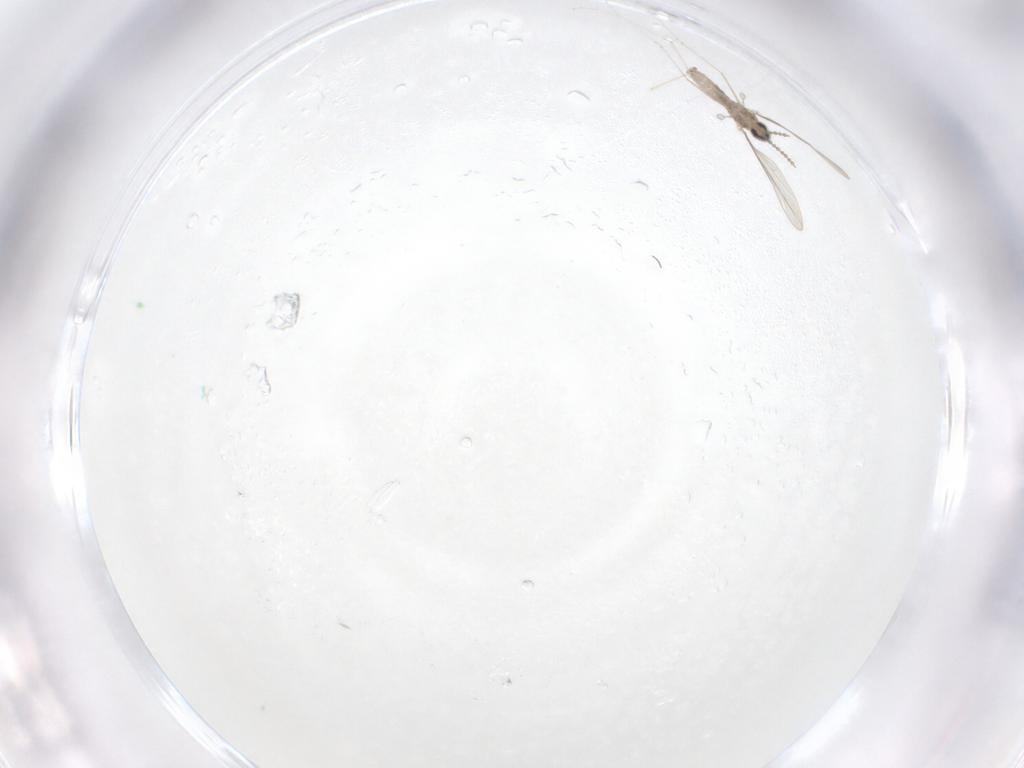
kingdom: Animalia
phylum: Arthropoda
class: Insecta
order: Diptera
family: Cecidomyiidae
